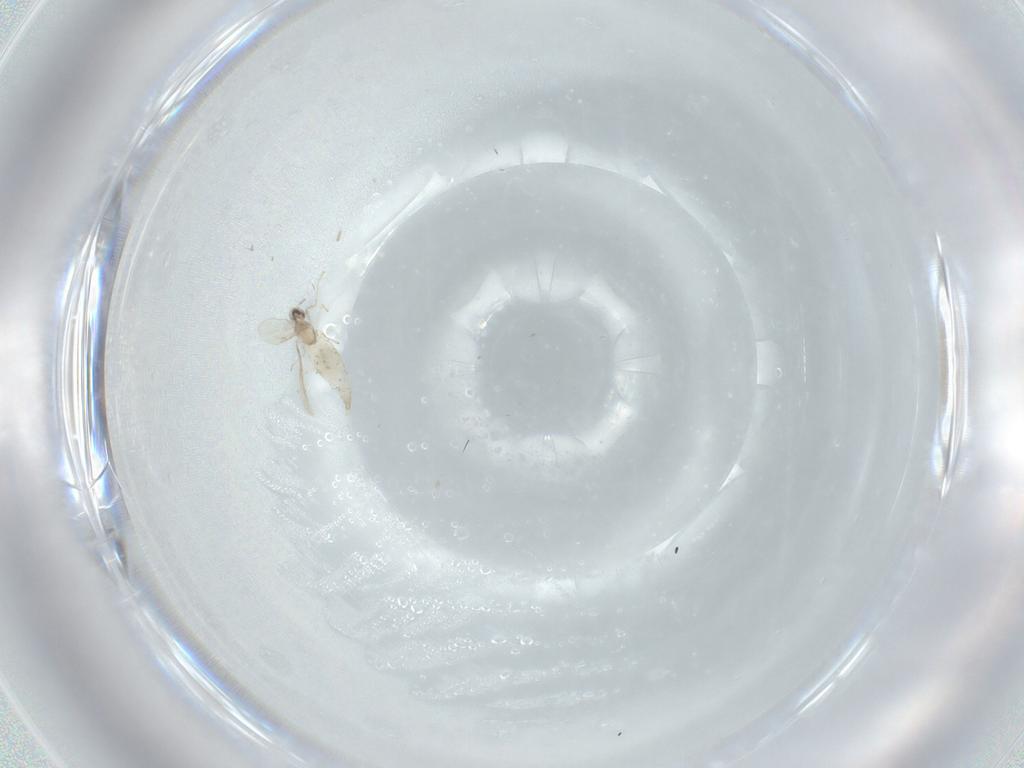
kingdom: Animalia
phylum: Arthropoda
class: Insecta
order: Diptera
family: Cecidomyiidae
